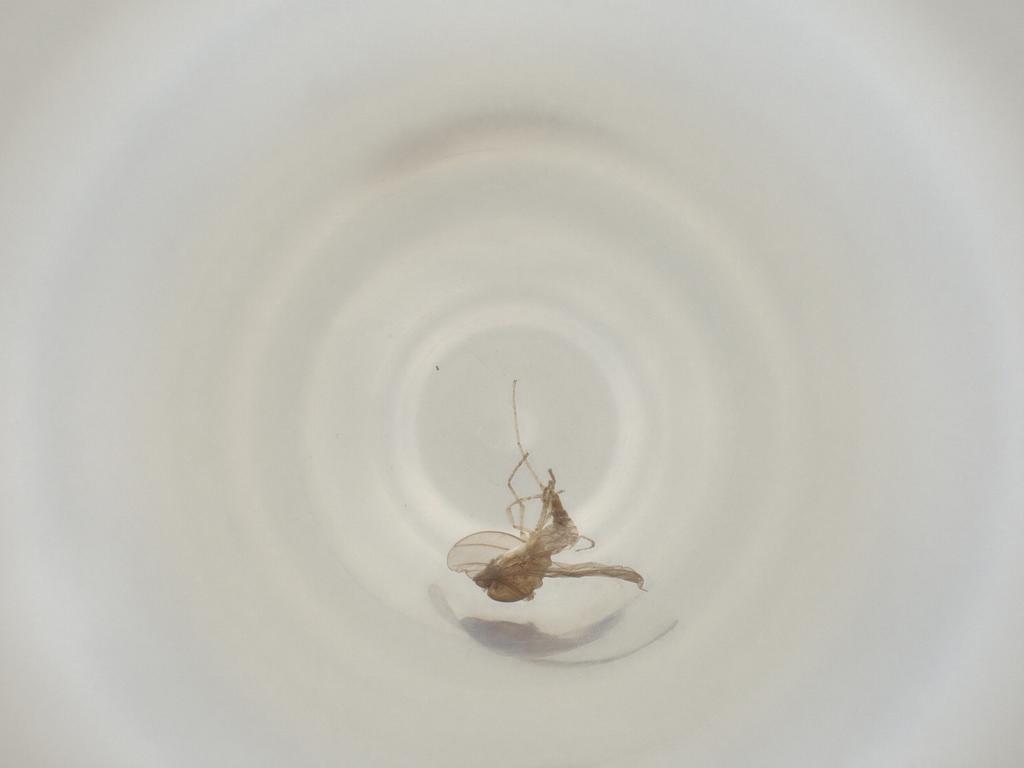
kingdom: Animalia
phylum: Arthropoda
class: Insecta
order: Diptera
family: Cecidomyiidae
